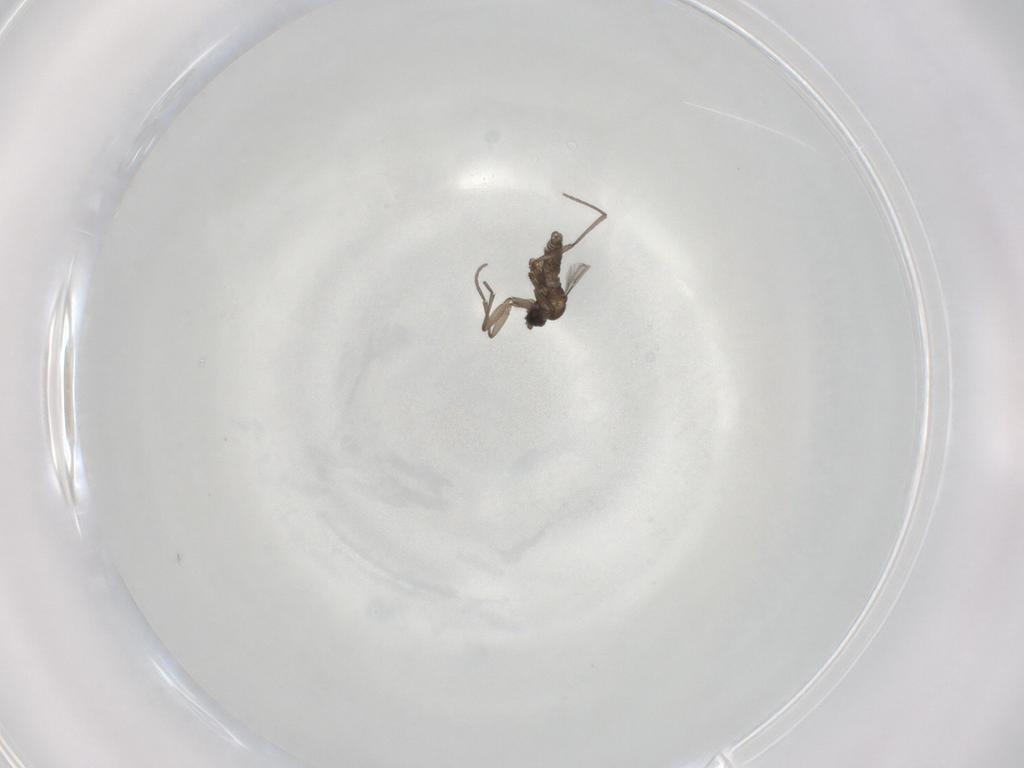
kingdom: Animalia
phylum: Arthropoda
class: Insecta
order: Diptera
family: Sciaridae
